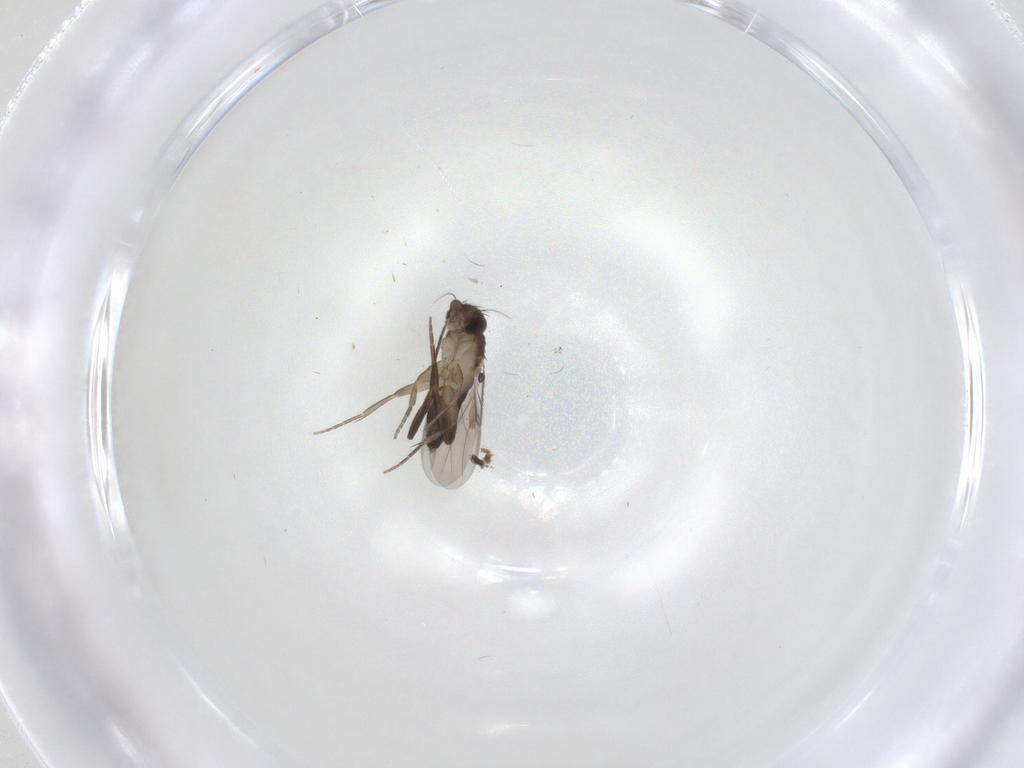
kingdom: Animalia
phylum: Arthropoda
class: Insecta
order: Diptera
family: Phoridae
